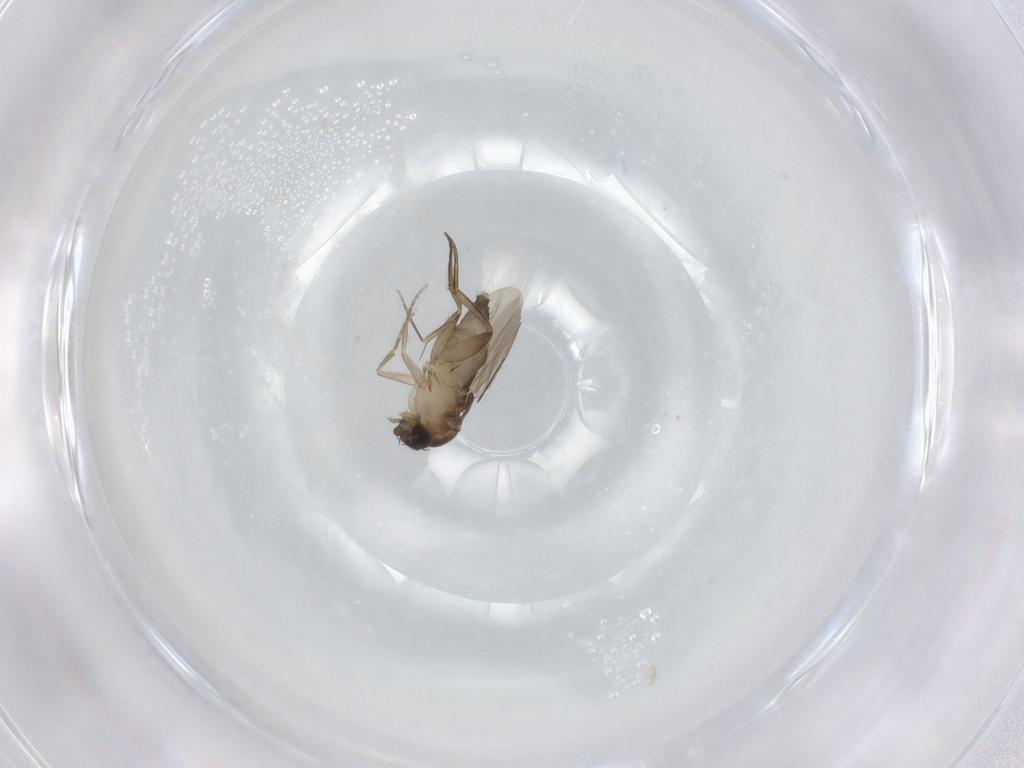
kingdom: Animalia
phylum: Arthropoda
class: Insecta
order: Diptera
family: Phoridae
